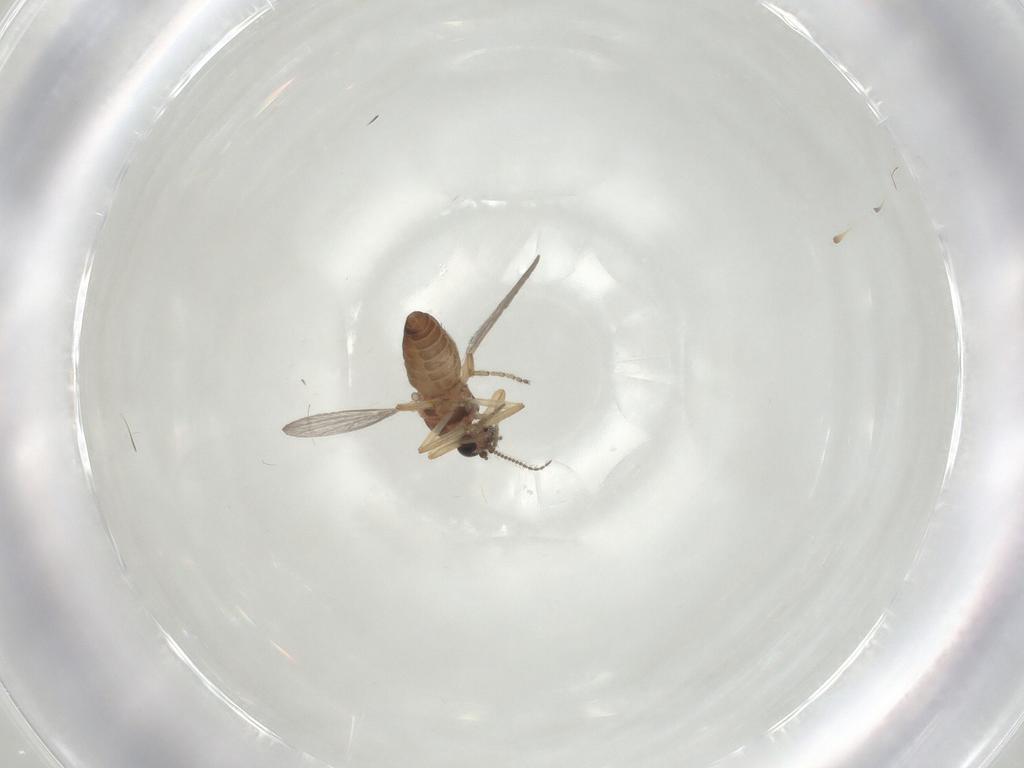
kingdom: Animalia
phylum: Arthropoda
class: Insecta
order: Diptera
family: Ceratopogonidae
